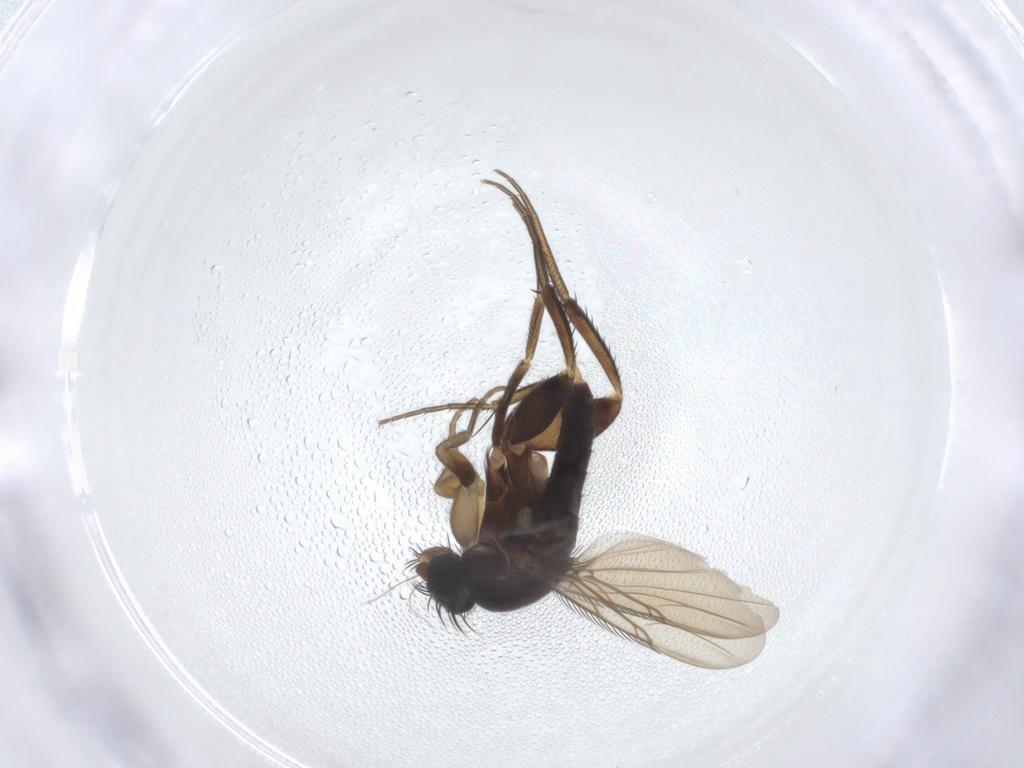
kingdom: Animalia
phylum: Arthropoda
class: Insecta
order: Diptera
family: Phoridae
